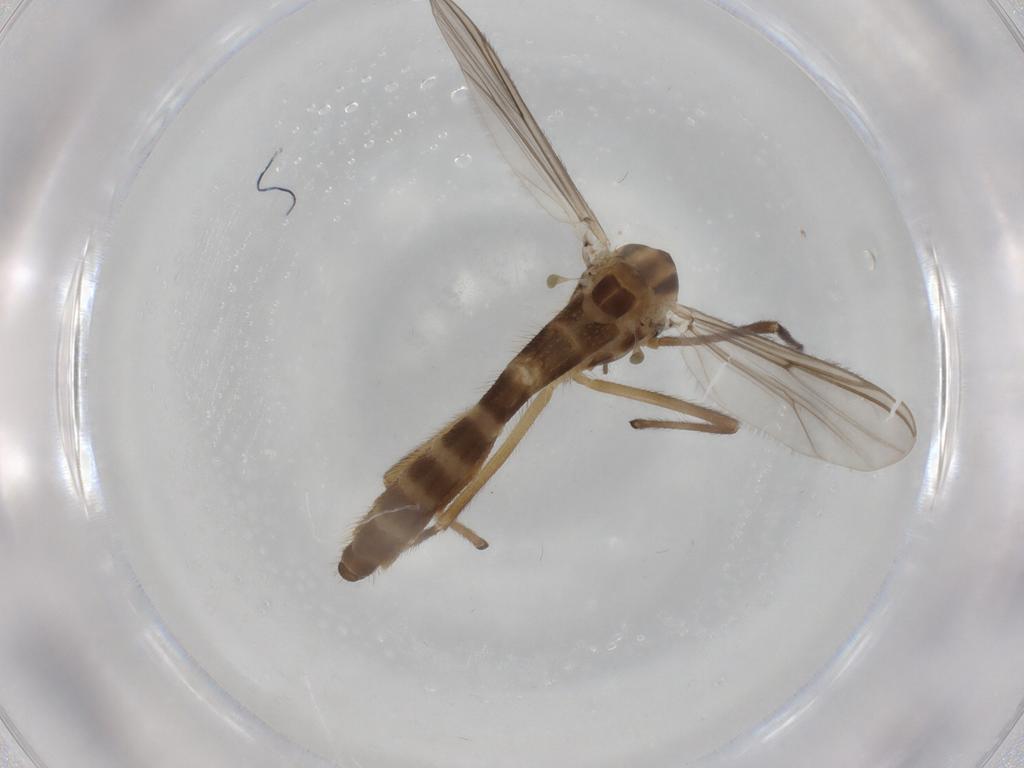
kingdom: Animalia
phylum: Arthropoda
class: Insecta
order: Diptera
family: Chironomidae
